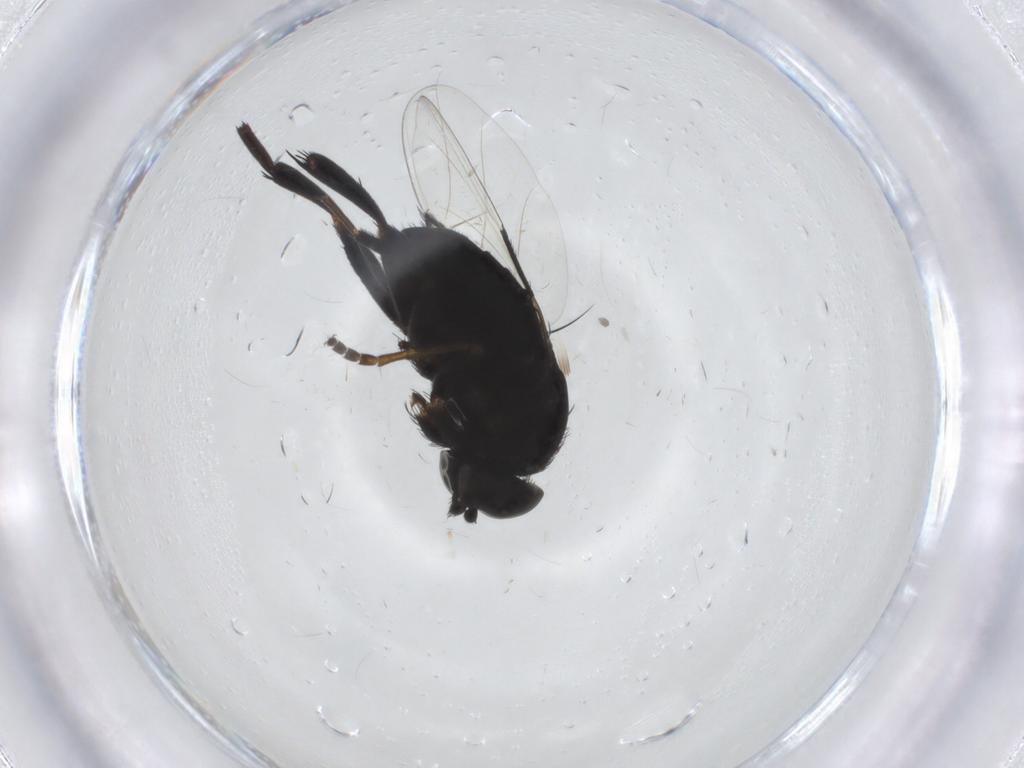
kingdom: Animalia
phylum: Arthropoda
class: Insecta
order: Diptera
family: Phoridae
